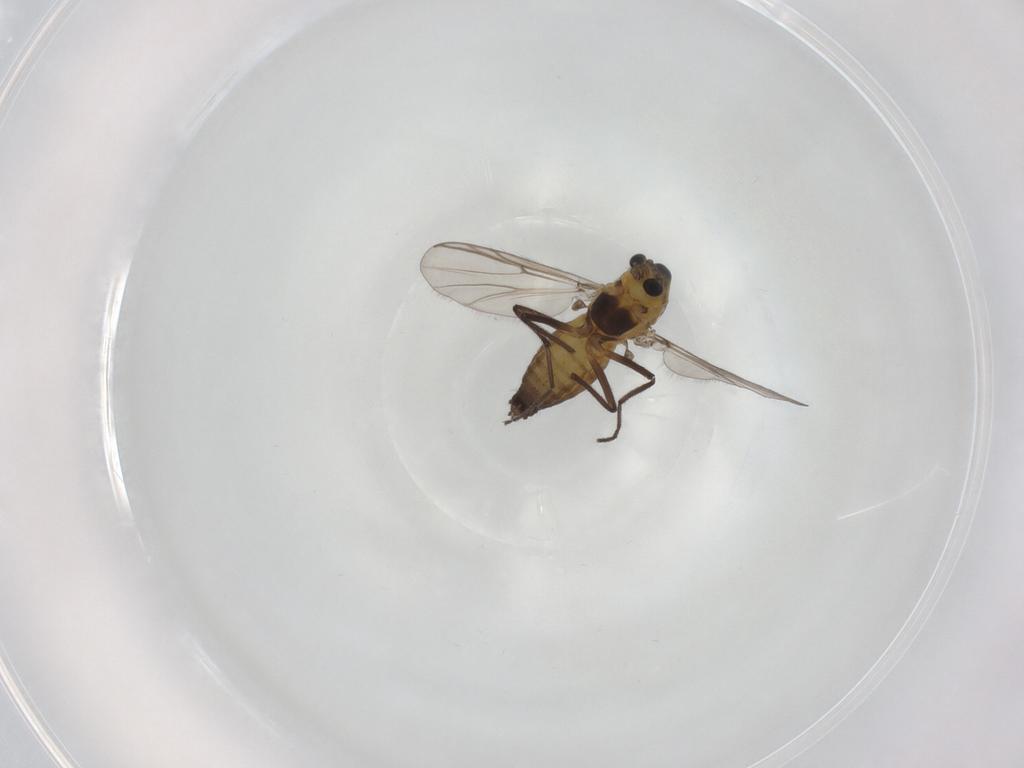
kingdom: Animalia
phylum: Arthropoda
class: Insecta
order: Diptera
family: Chironomidae
